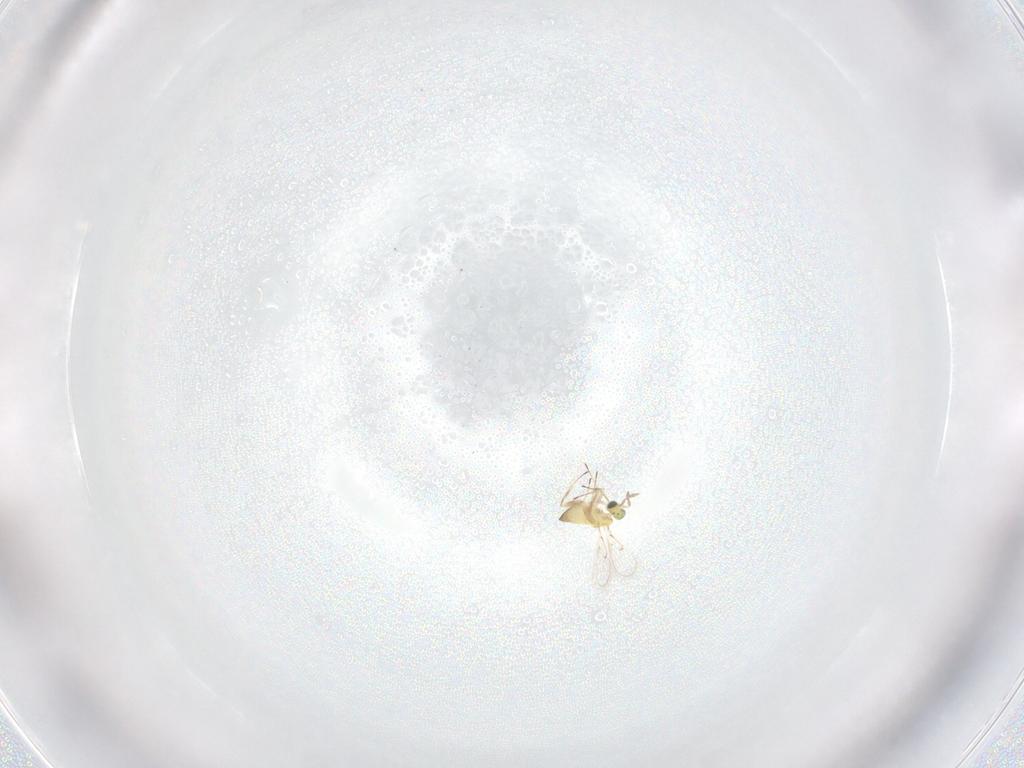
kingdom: Animalia
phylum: Arthropoda
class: Insecta
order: Hymenoptera
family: Trichogrammatidae
